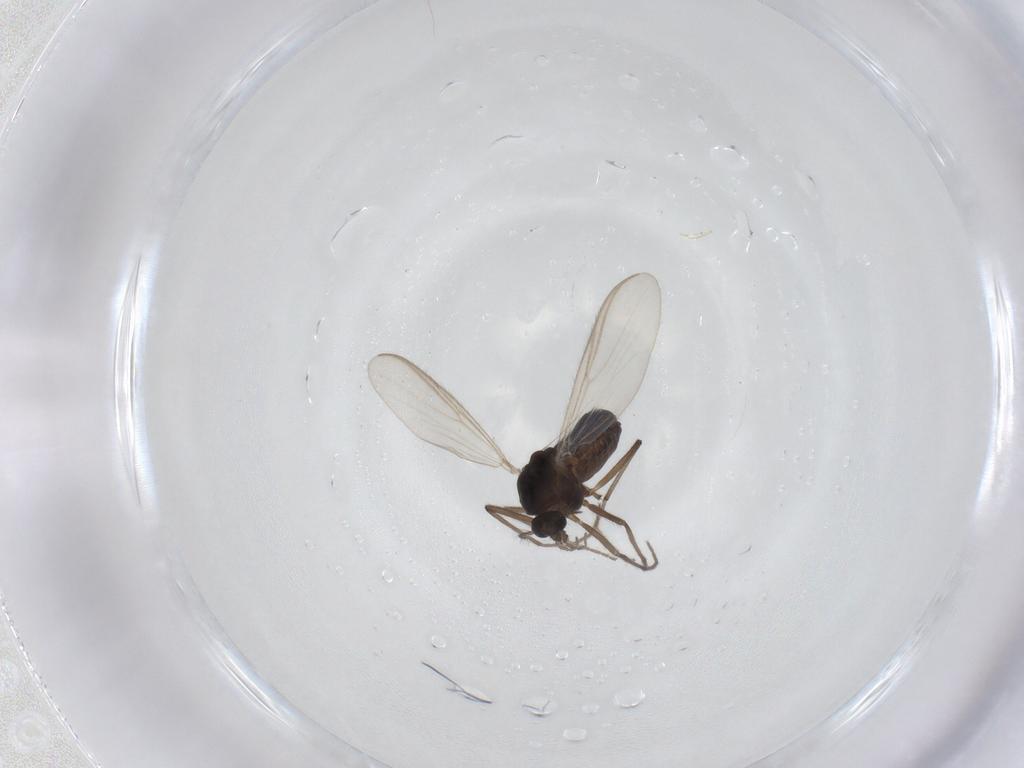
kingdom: Animalia
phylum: Arthropoda
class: Insecta
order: Diptera
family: Chironomidae
